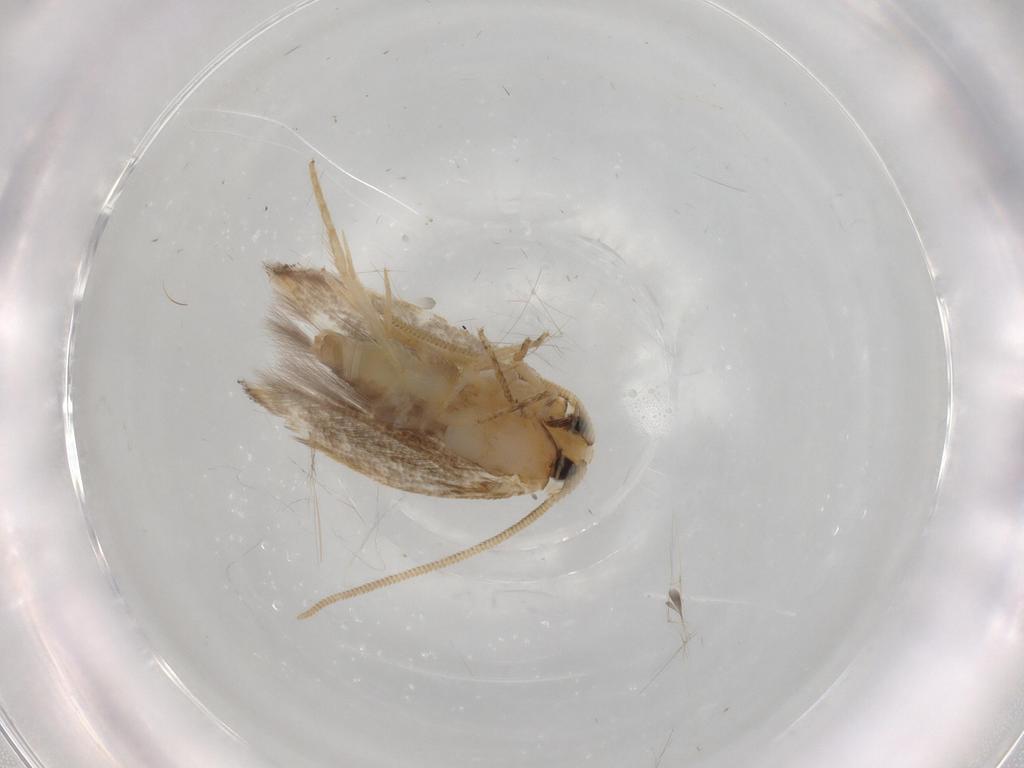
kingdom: Animalia
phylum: Arthropoda
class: Insecta
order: Lepidoptera
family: Opostegidae
